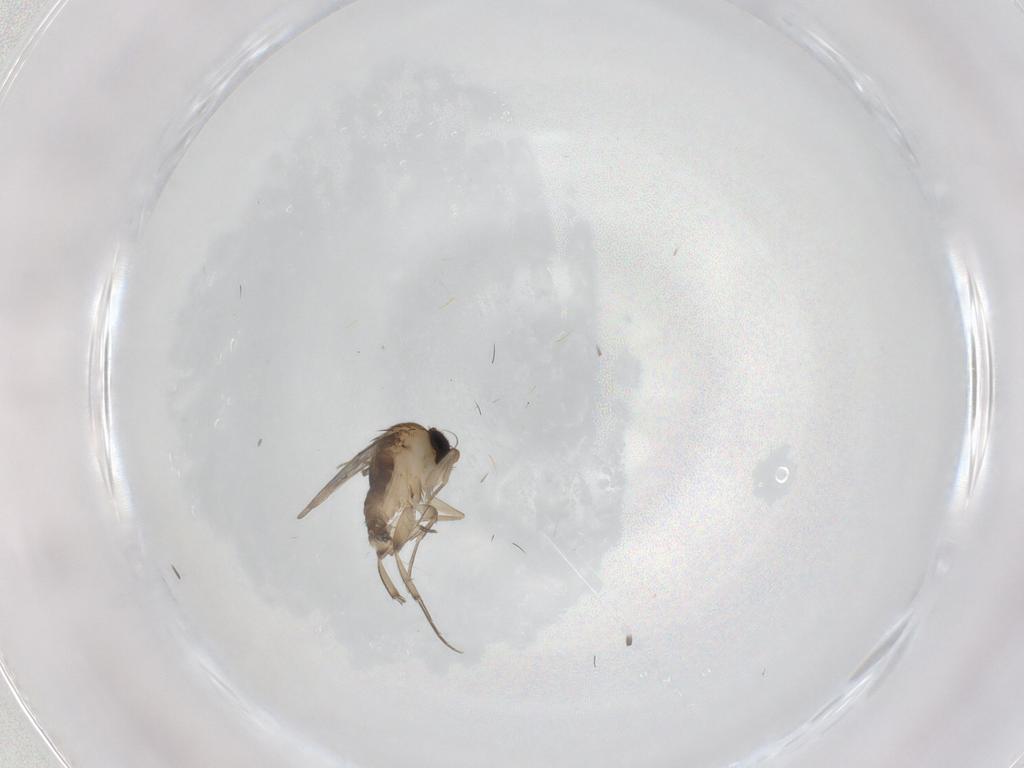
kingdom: Animalia
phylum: Arthropoda
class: Insecta
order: Diptera
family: Phoridae
